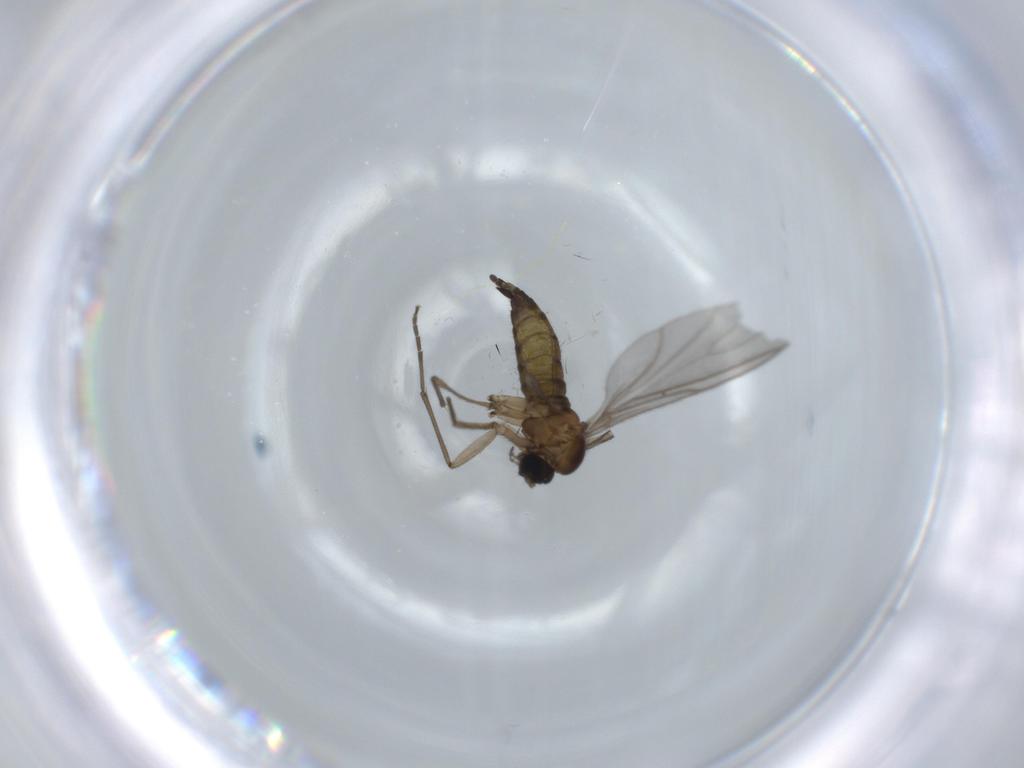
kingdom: Animalia
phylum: Arthropoda
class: Insecta
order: Diptera
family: Sciaridae
